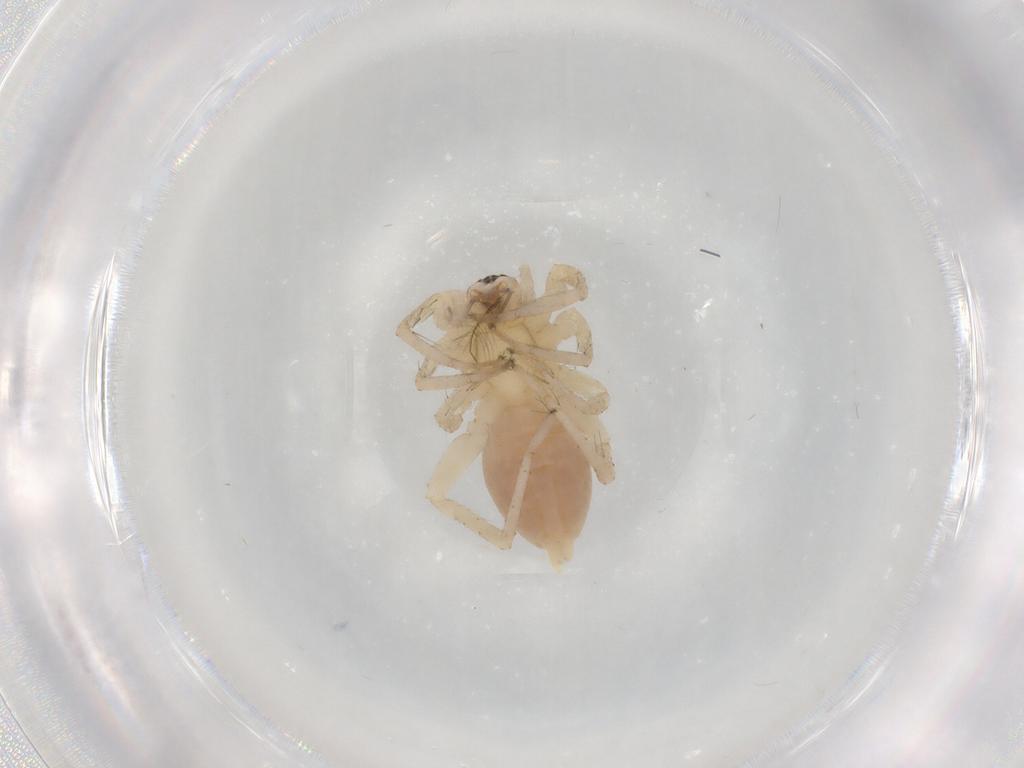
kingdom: Animalia
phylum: Arthropoda
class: Arachnida
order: Araneae
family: Anyphaenidae
